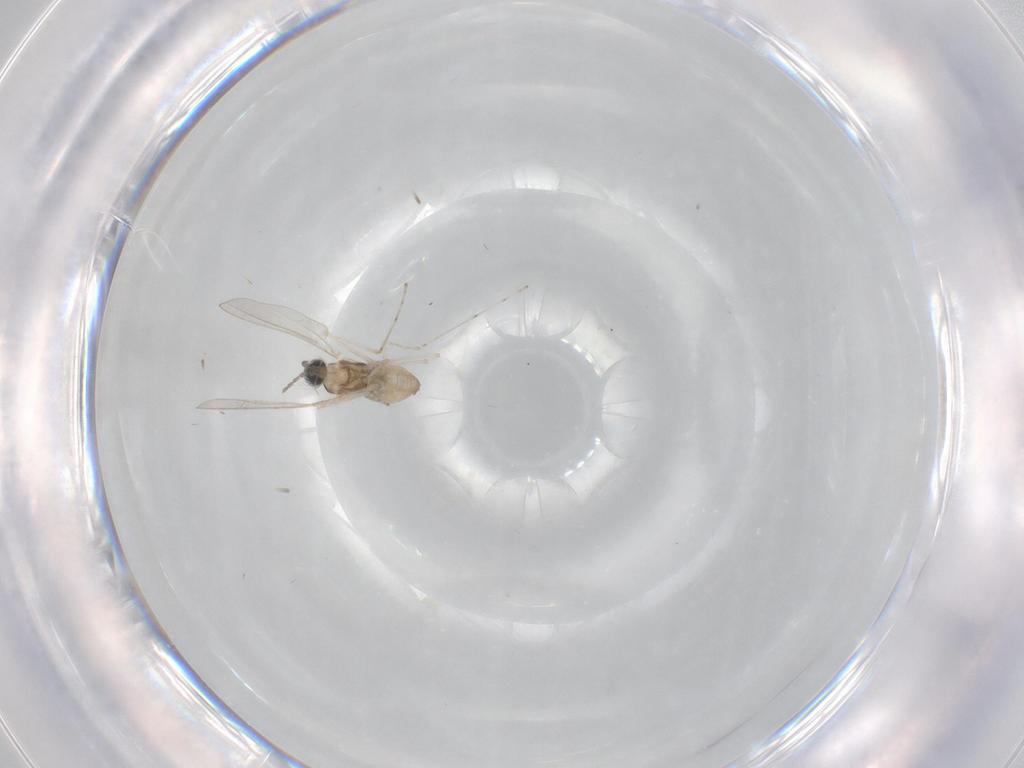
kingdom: Animalia
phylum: Arthropoda
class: Insecta
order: Diptera
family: Cecidomyiidae
